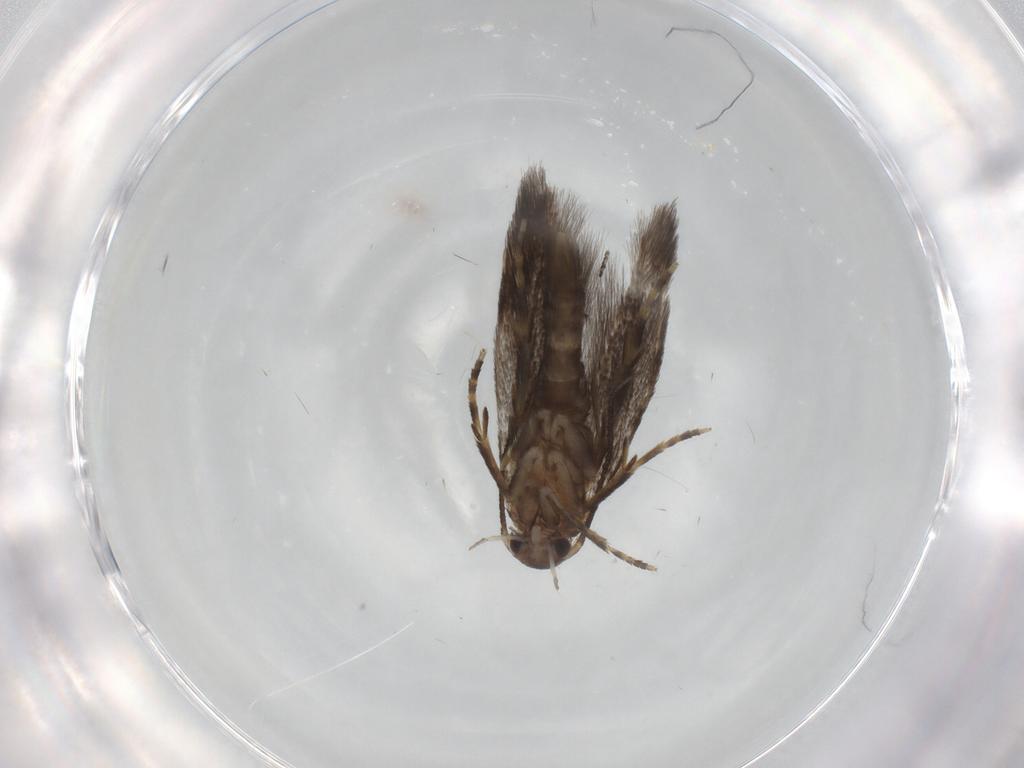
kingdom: Animalia
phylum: Arthropoda
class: Insecta
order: Lepidoptera
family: Elachistidae
